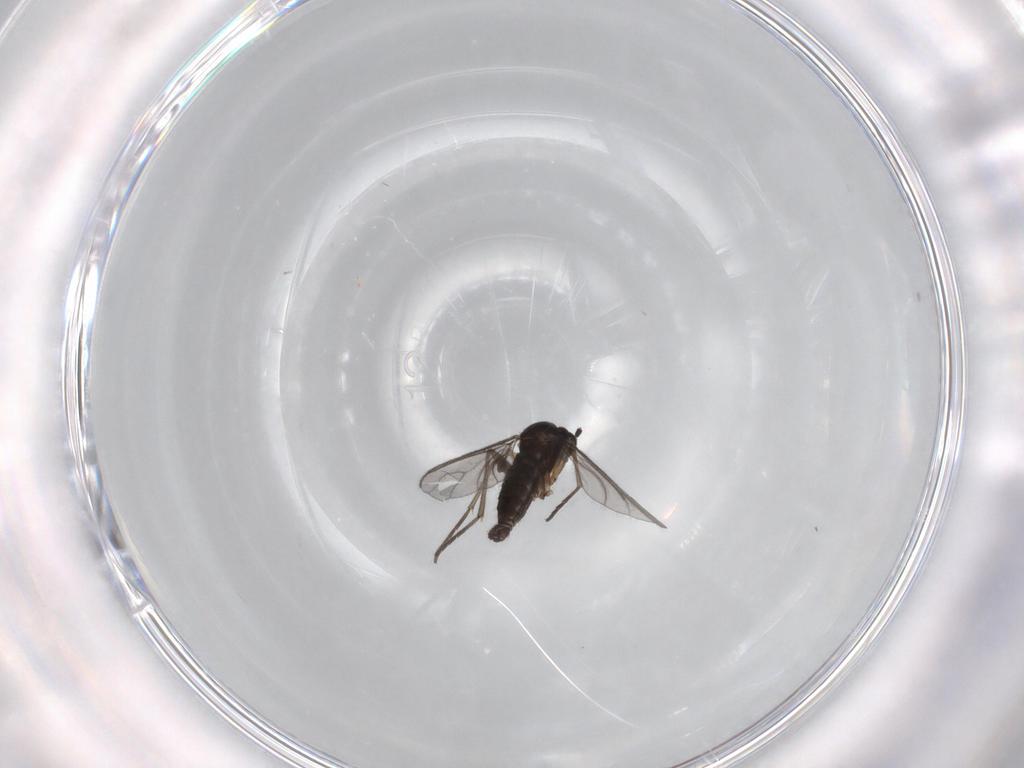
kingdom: Animalia
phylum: Arthropoda
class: Insecta
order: Diptera
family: Sciaridae
